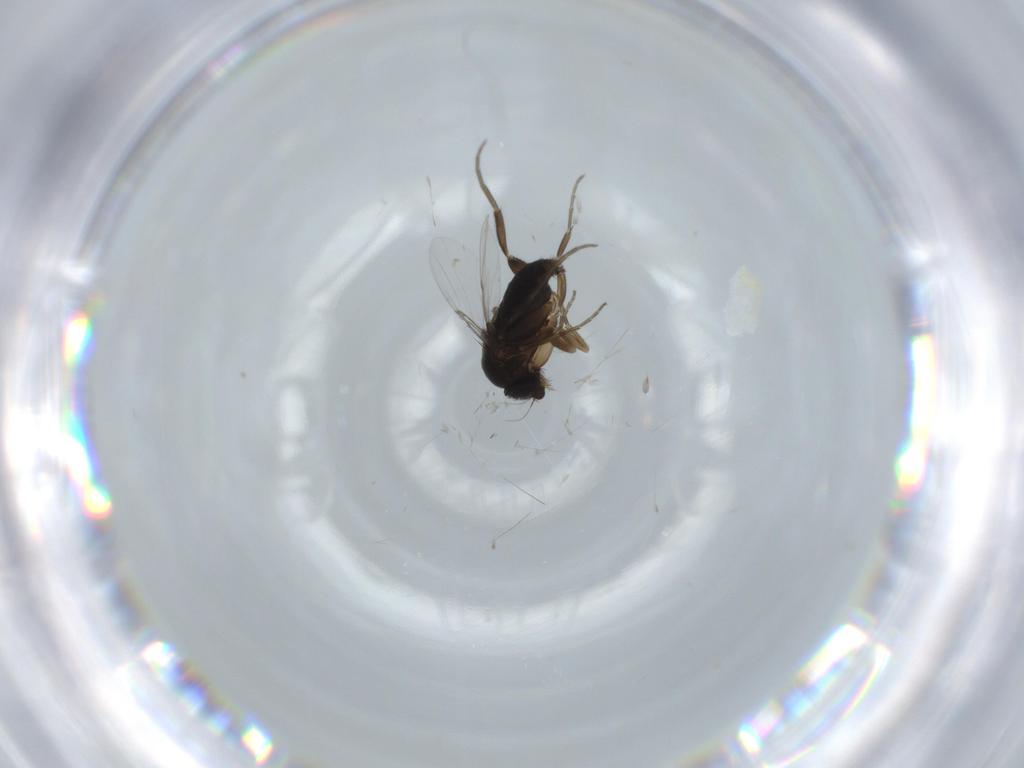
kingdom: Animalia
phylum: Arthropoda
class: Insecta
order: Diptera
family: Phoridae
